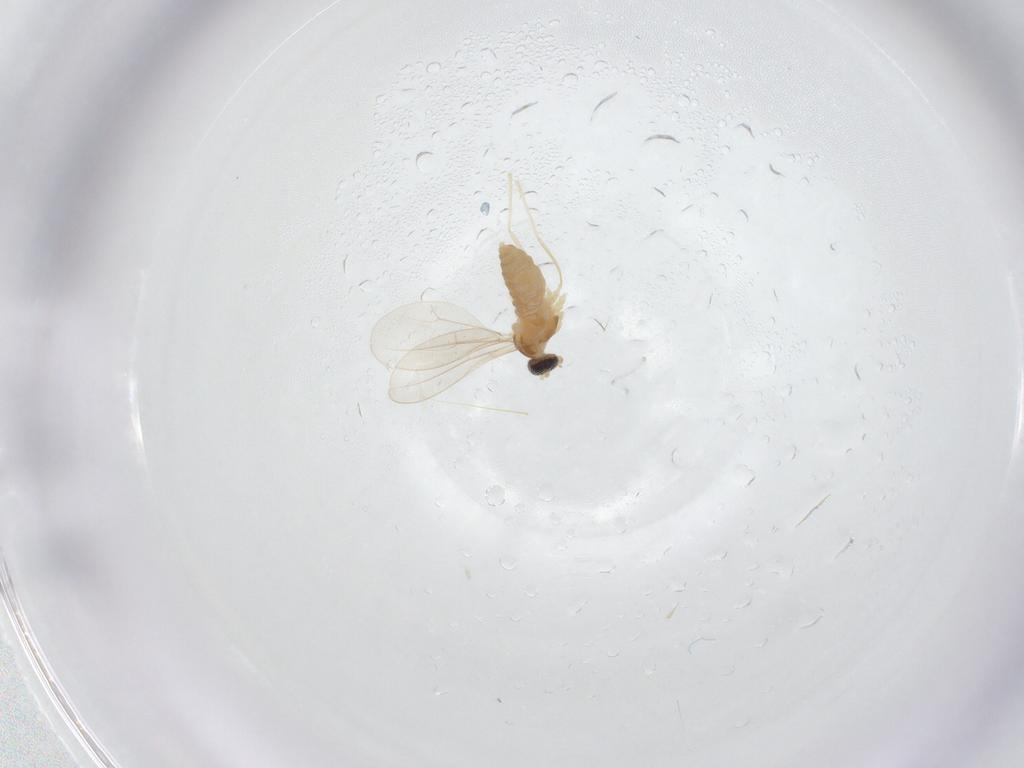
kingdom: Animalia
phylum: Arthropoda
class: Insecta
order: Diptera
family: Cecidomyiidae
